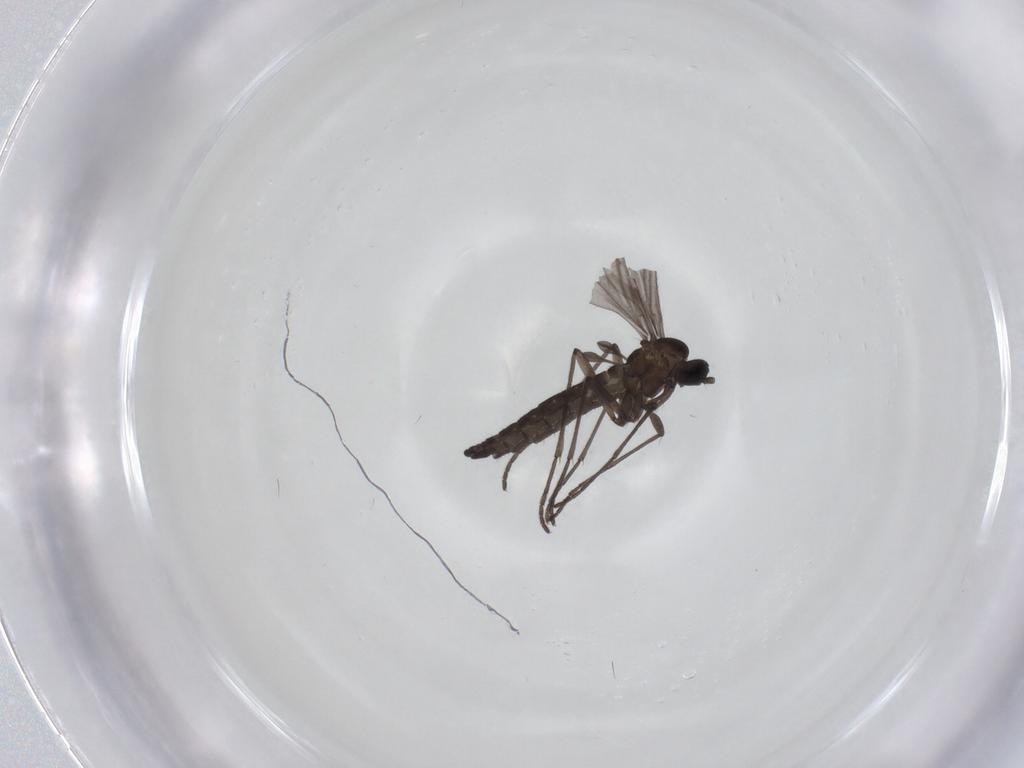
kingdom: Animalia
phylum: Arthropoda
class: Insecta
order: Diptera
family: Sciaridae
